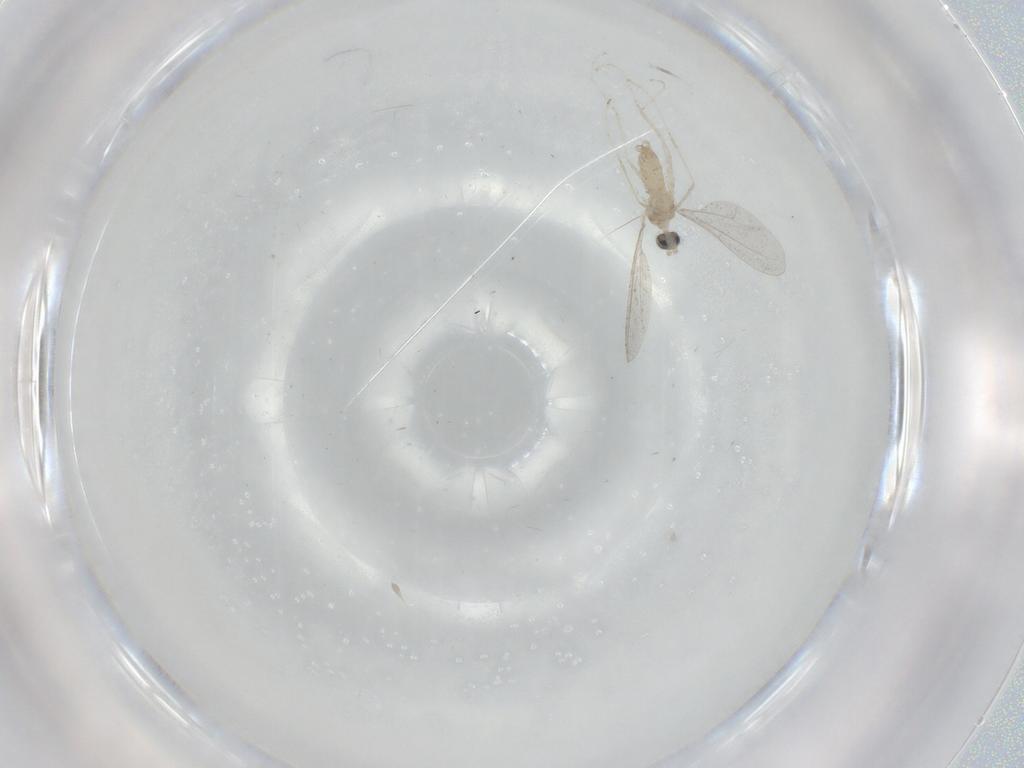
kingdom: Animalia
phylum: Arthropoda
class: Insecta
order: Diptera
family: Cecidomyiidae
